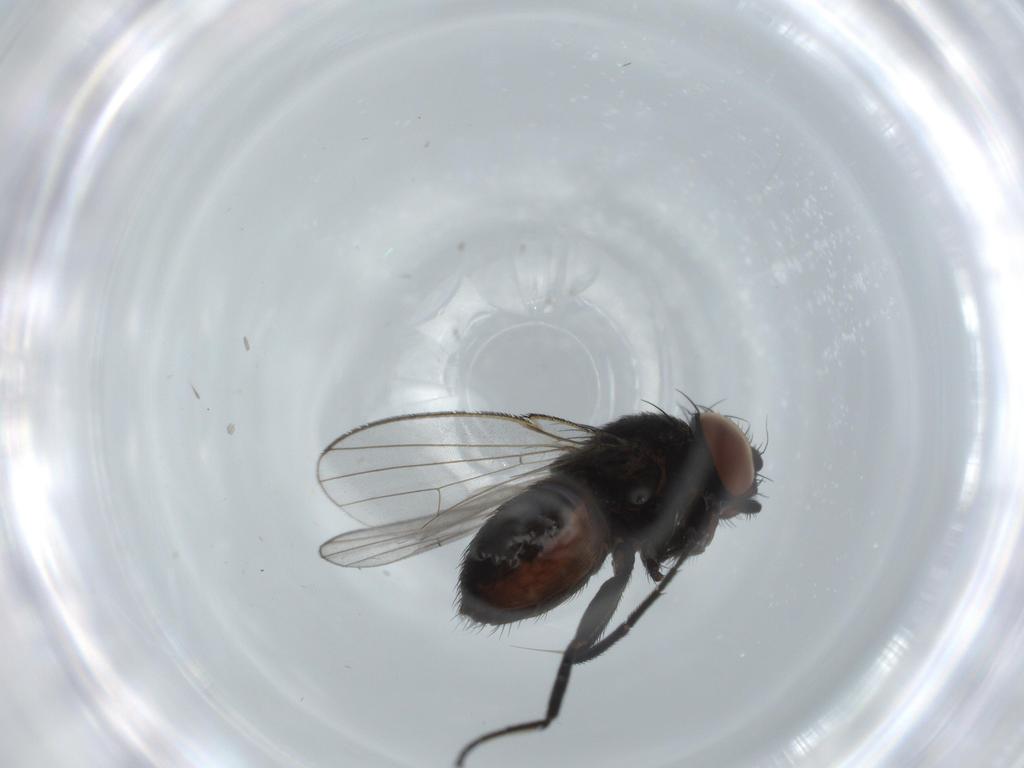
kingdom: Animalia
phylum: Arthropoda
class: Insecta
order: Diptera
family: Milichiidae
